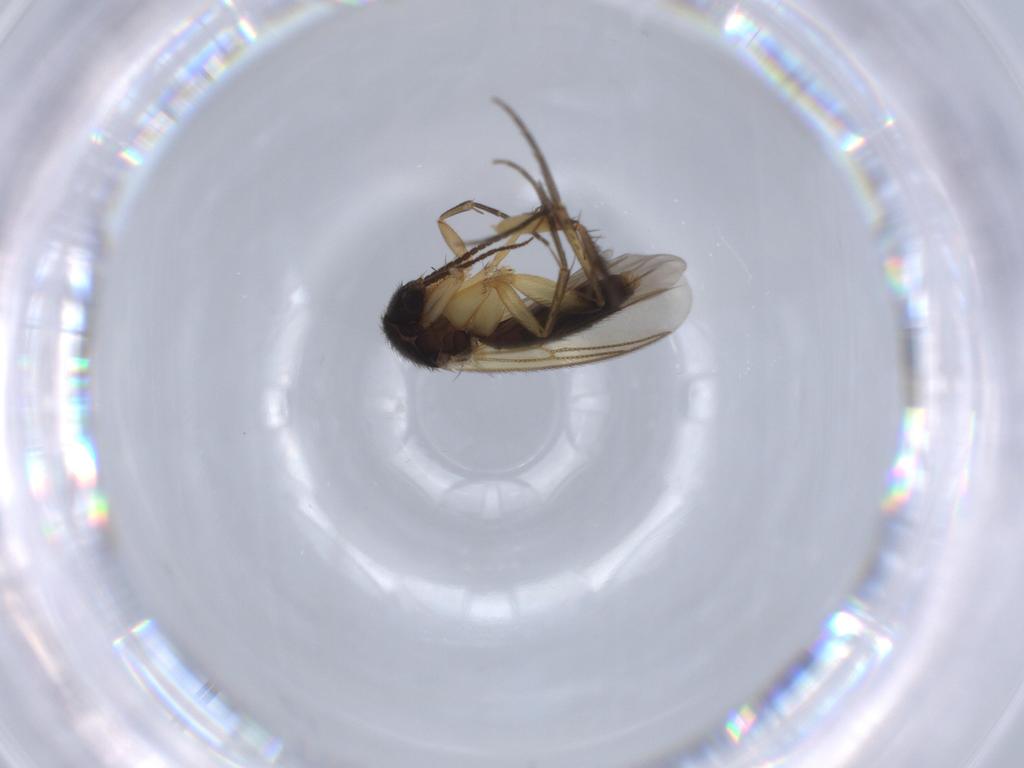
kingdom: Animalia
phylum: Arthropoda
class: Insecta
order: Diptera
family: Mycetophilidae
